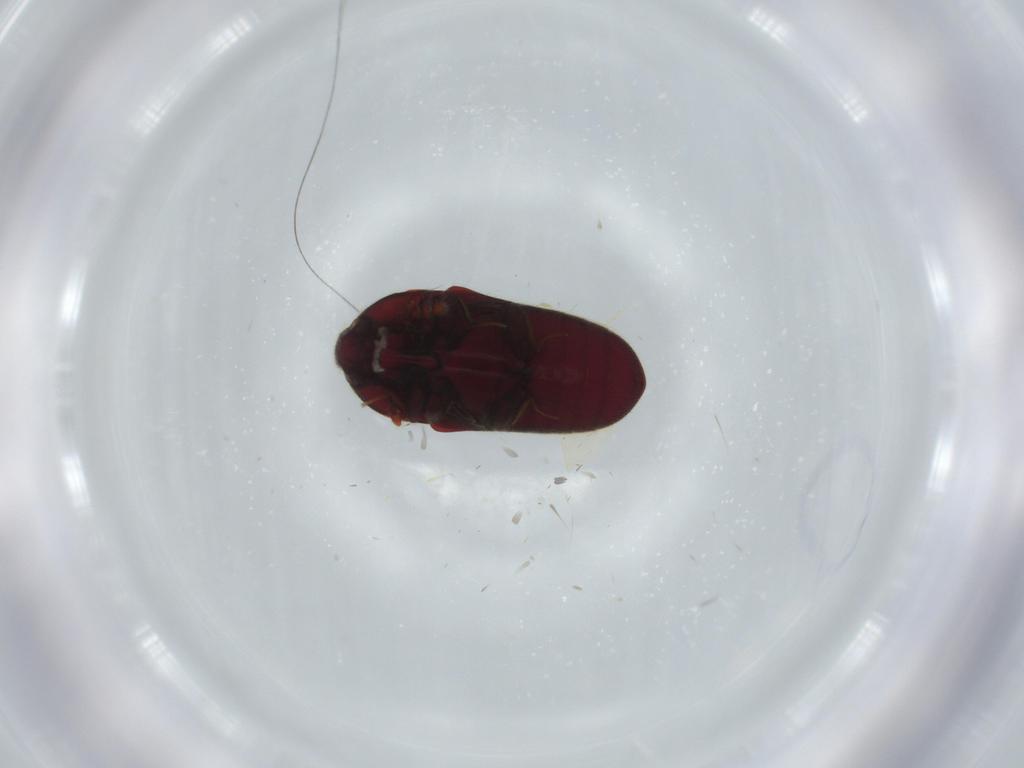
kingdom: Animalia
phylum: Arthropoda
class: Insecta
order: Coleoptera
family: Throscidae
